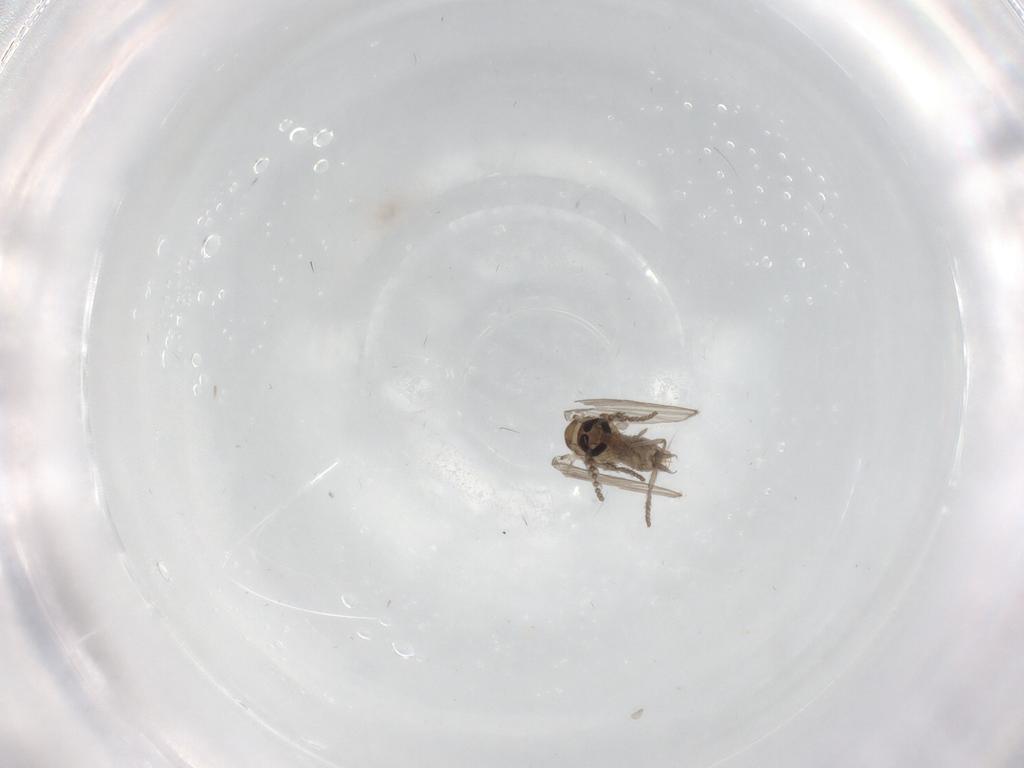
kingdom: Animalia
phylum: Arthropoda
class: Insecta
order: Diptera
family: Psychodidae
